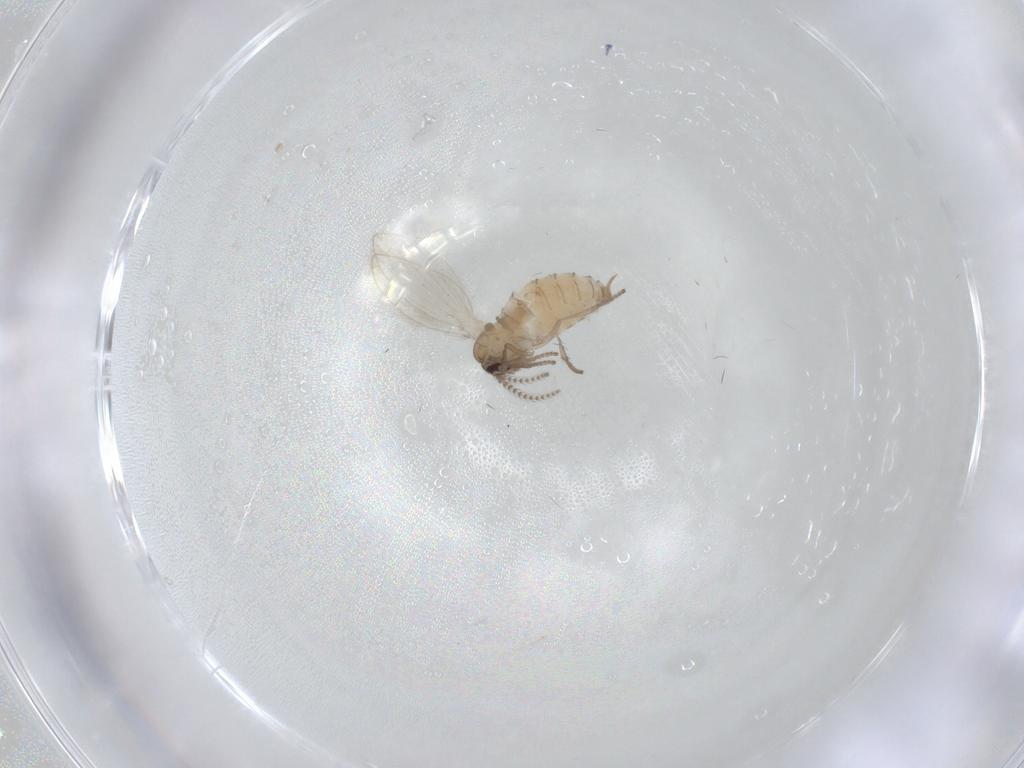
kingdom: Animalia
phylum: Arthropoda
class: Insecta
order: Diptera
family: Psychodidae
